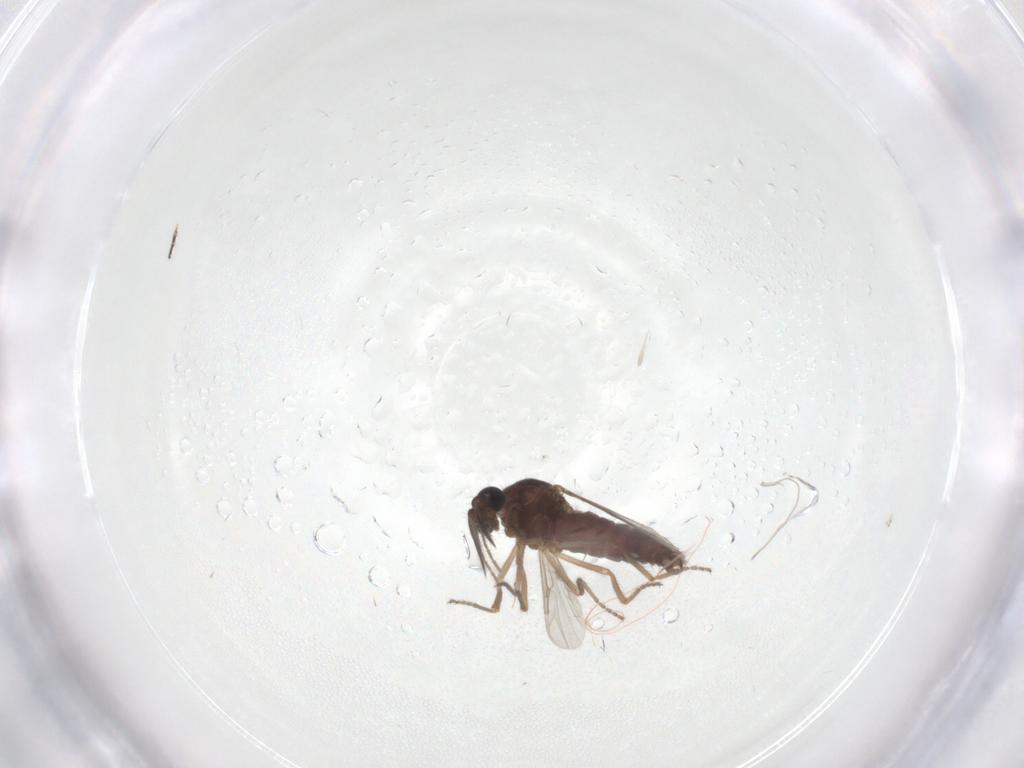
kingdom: Animalia
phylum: Arthropoda
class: Insecta
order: Diptera
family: Ceratopogonidae
